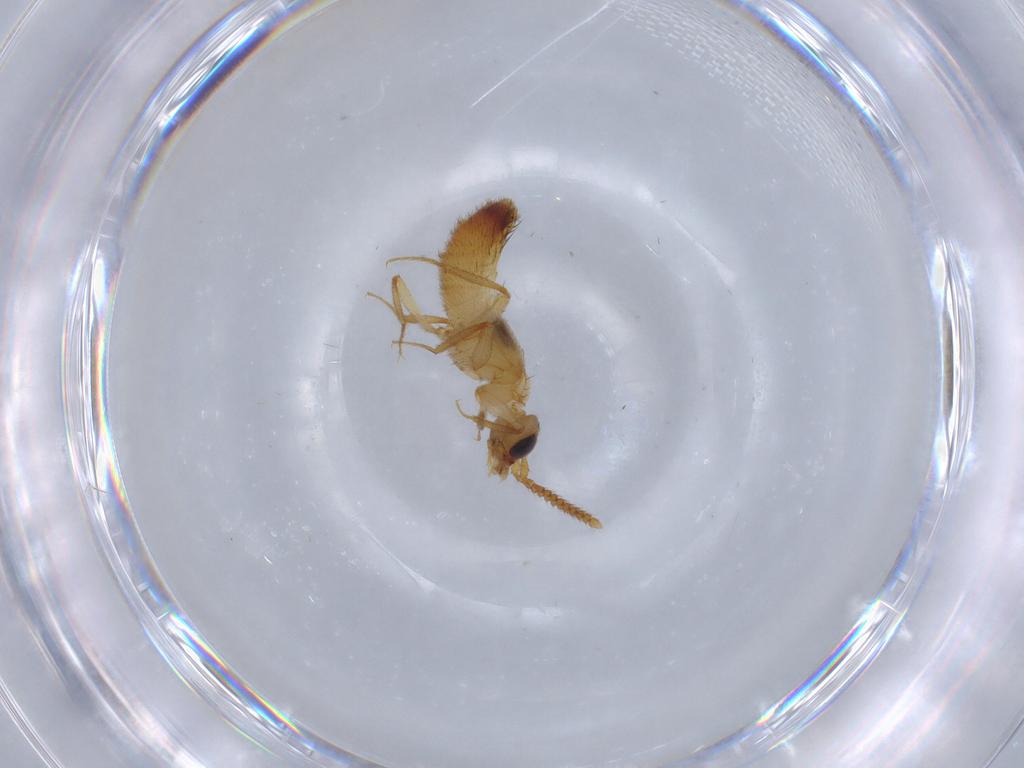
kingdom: Animalia
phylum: Arthropoda
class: Insecta
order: Coleoptera
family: Staphylinidae
